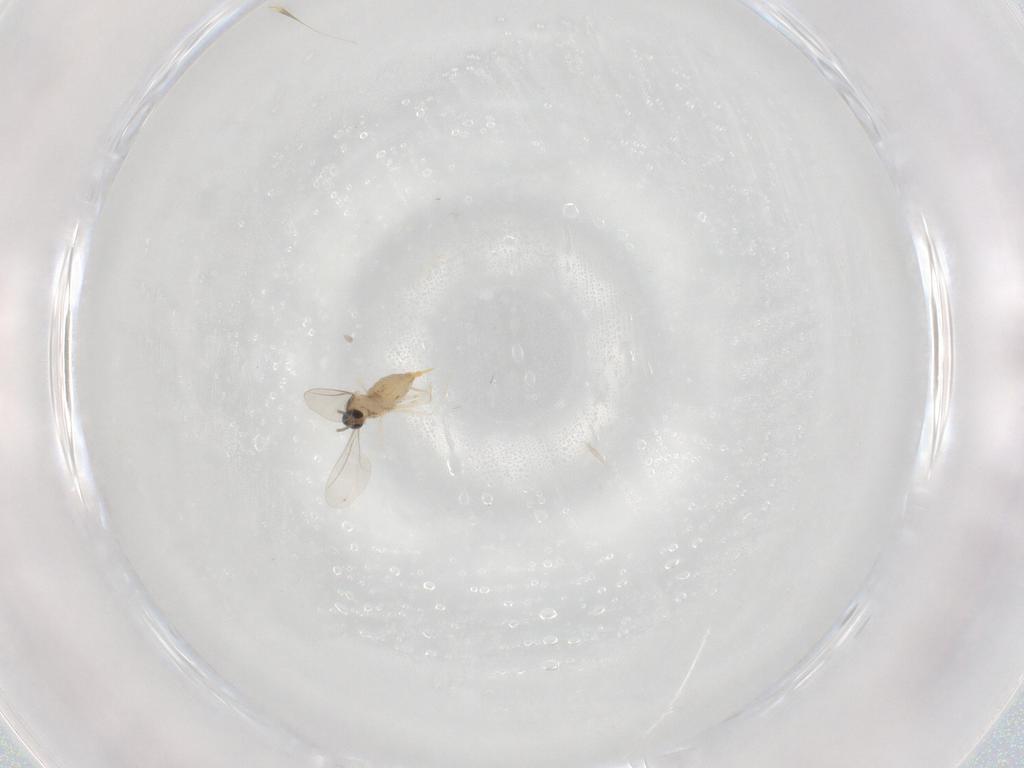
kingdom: Animalia
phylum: Arthropoda
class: Insecta
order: Diptera
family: Cecidomyiidae
